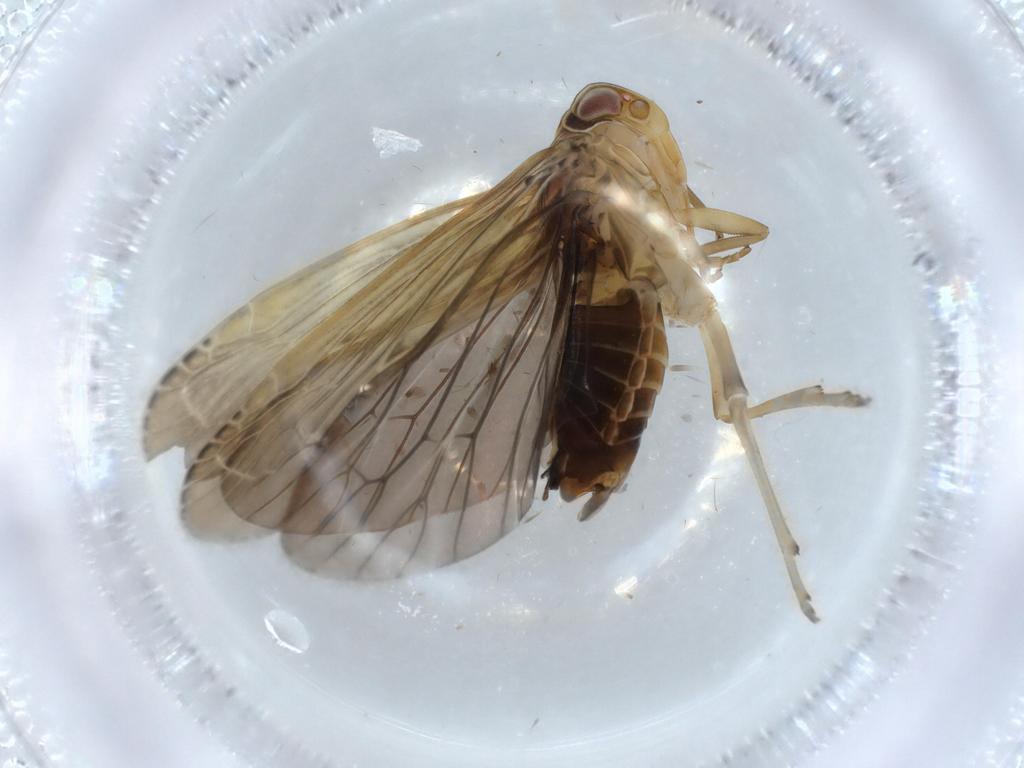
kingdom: Animalia
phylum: Arthropoda
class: Insecta
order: Hemiptera
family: Achilidae
